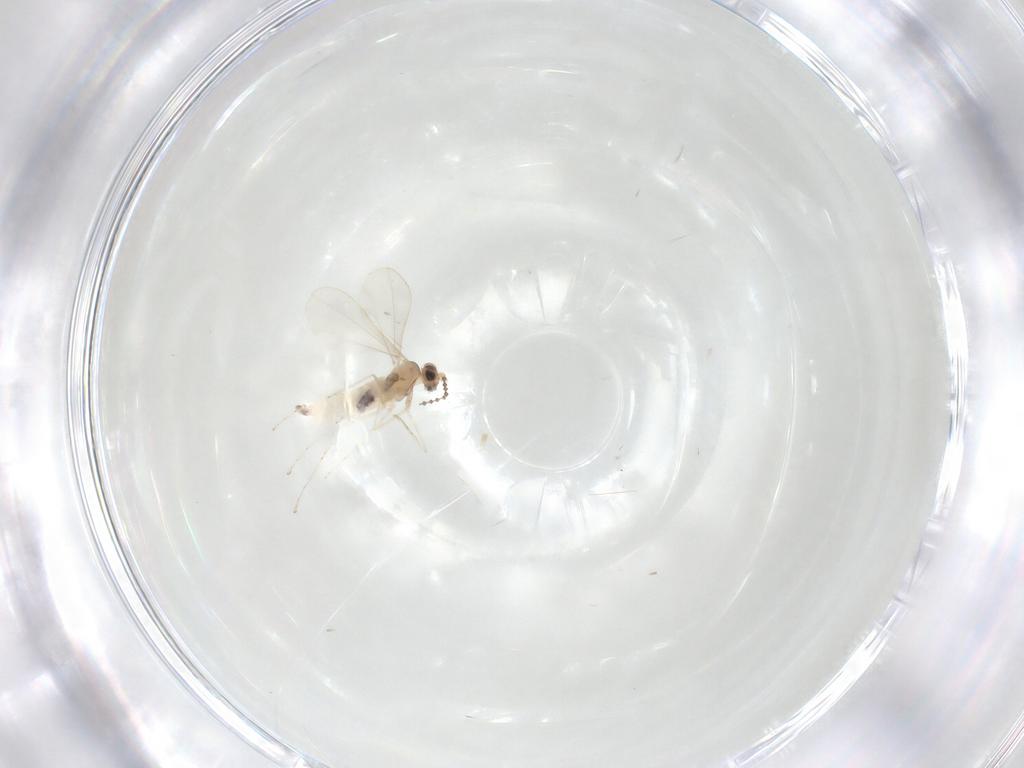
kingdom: Animalia
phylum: Arthropoda
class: Insecta
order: Diptera
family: Cecidomyiidae
